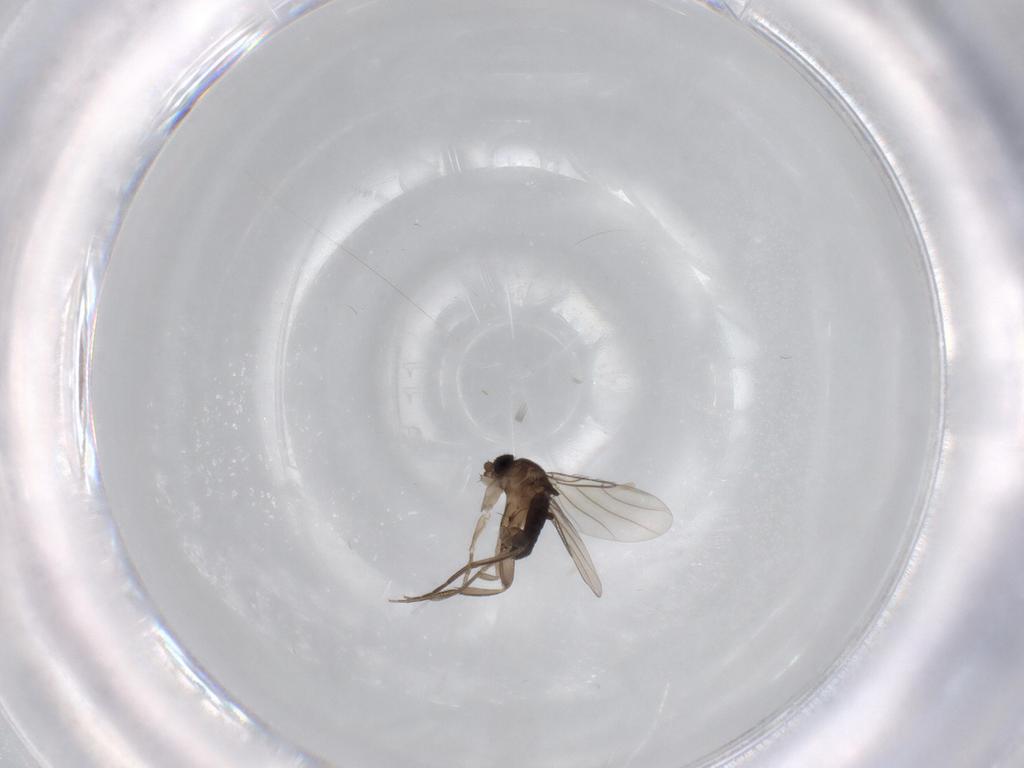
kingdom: Animalia
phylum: Arthropoda
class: Insecta
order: Diptera
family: Phoridae
